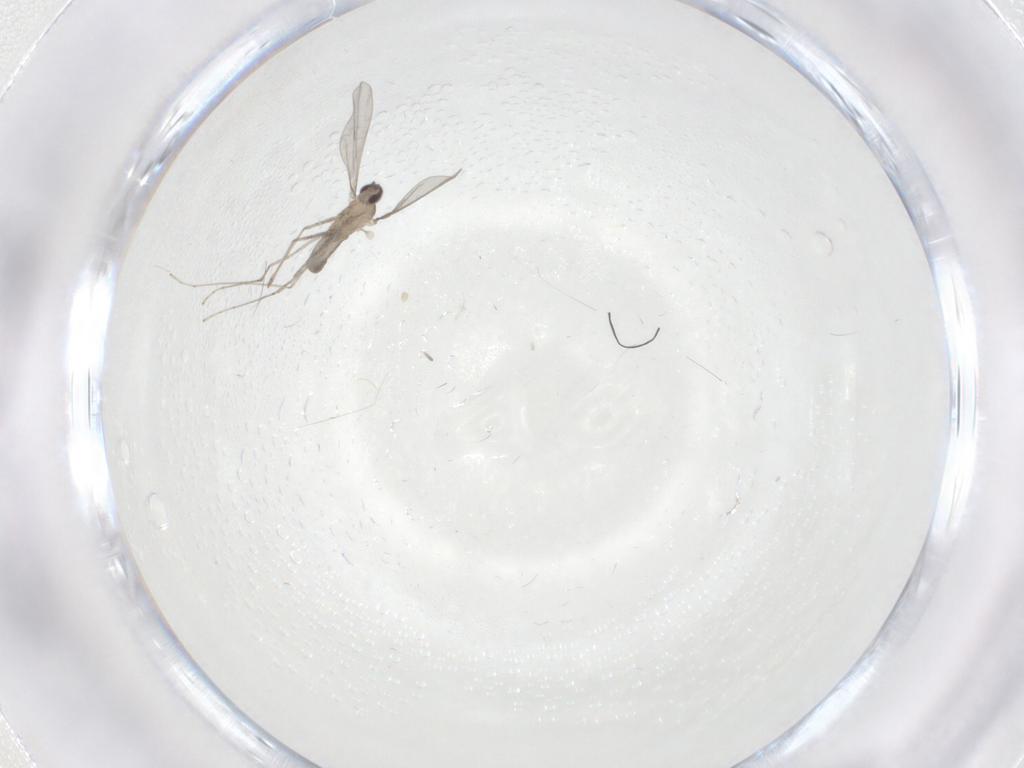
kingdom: Animalia
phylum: Arthropoda
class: Insecta
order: Diptera
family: Cecidomyiidae
